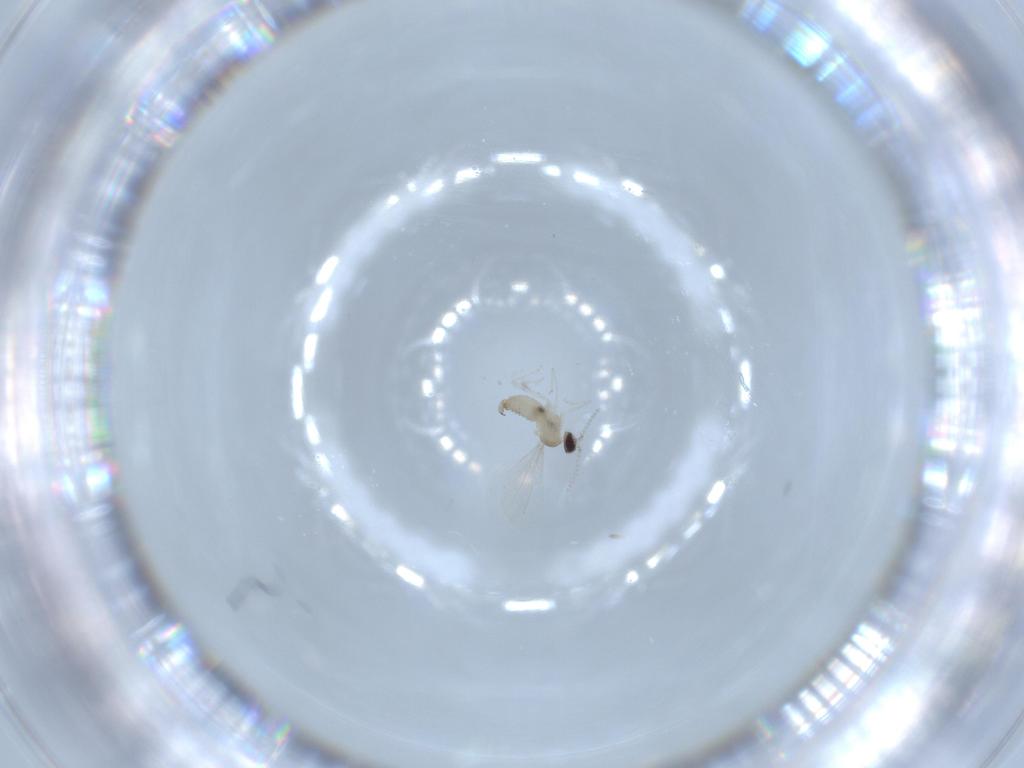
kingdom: Animalia
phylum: Arthropoda
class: Insecta
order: Diptera
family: Cecidomyiidae
